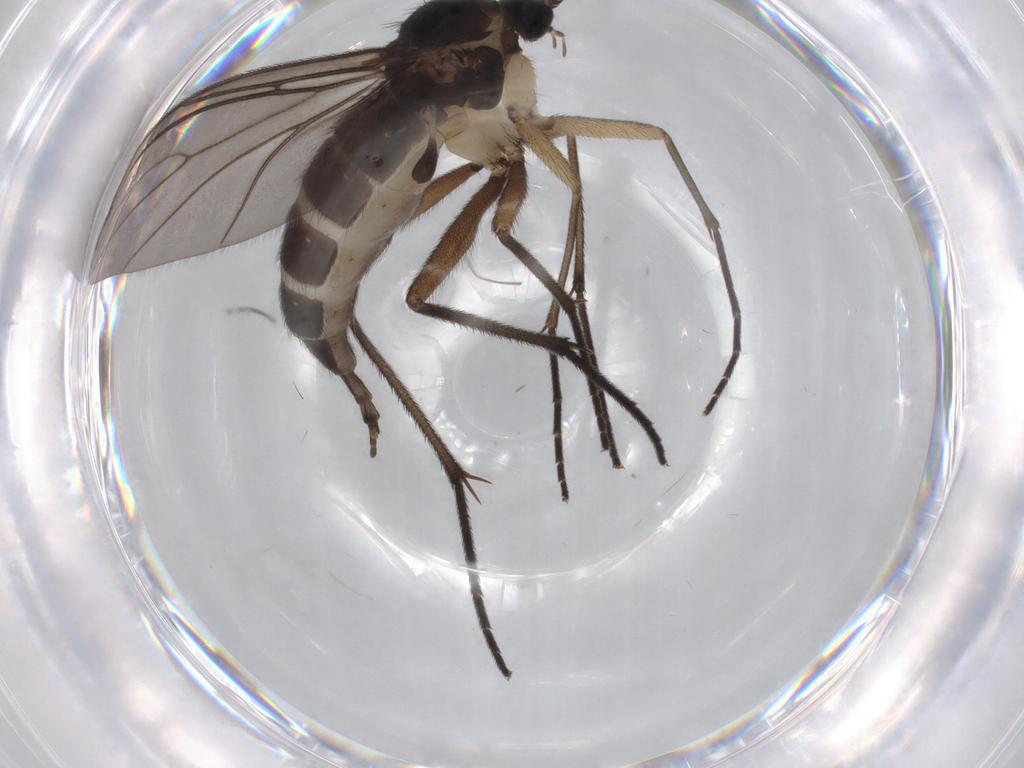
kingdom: Animalia
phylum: Arthropoda
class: Insecta
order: Diptera
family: Sciaridae
